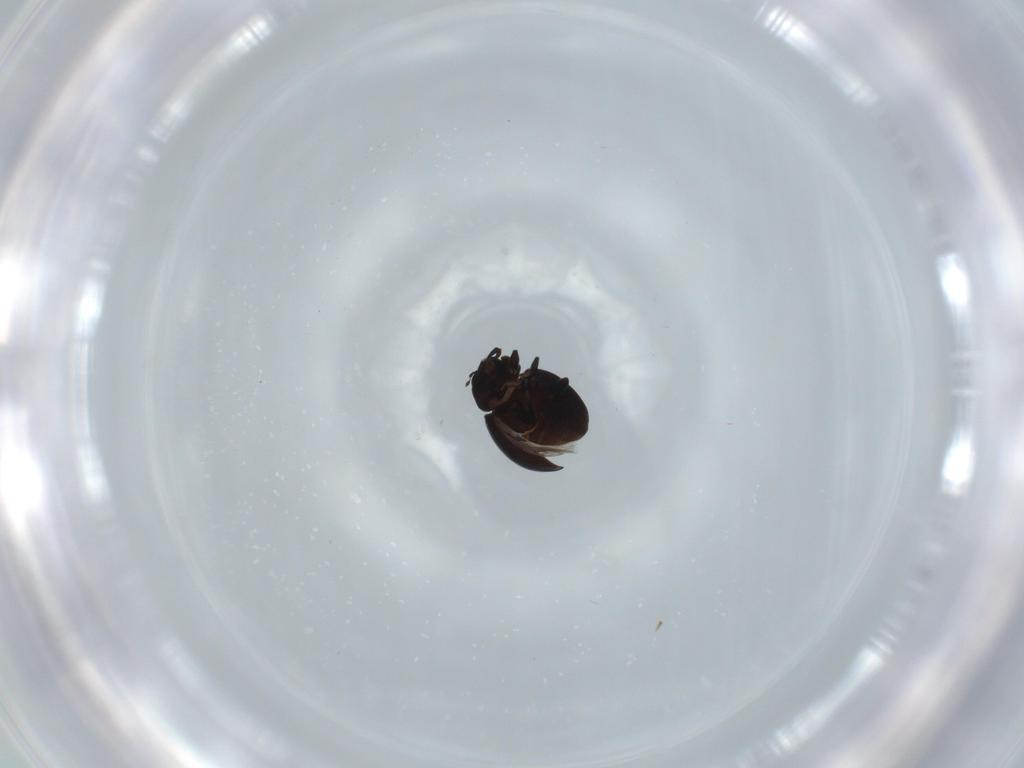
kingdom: Animalia
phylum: Arthropoda
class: Insecta
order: Coleoptera
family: Coccinellidae
